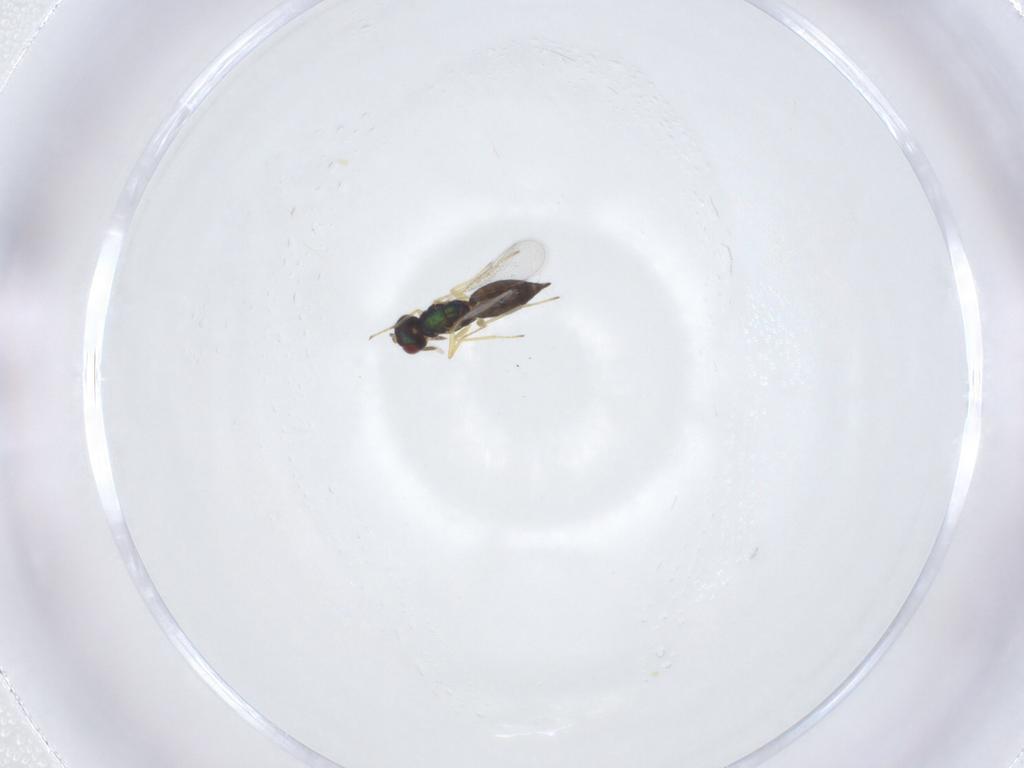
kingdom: Animalia
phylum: Arthropoda
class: Insecta
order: Hymenoptera
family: Eulophidae
